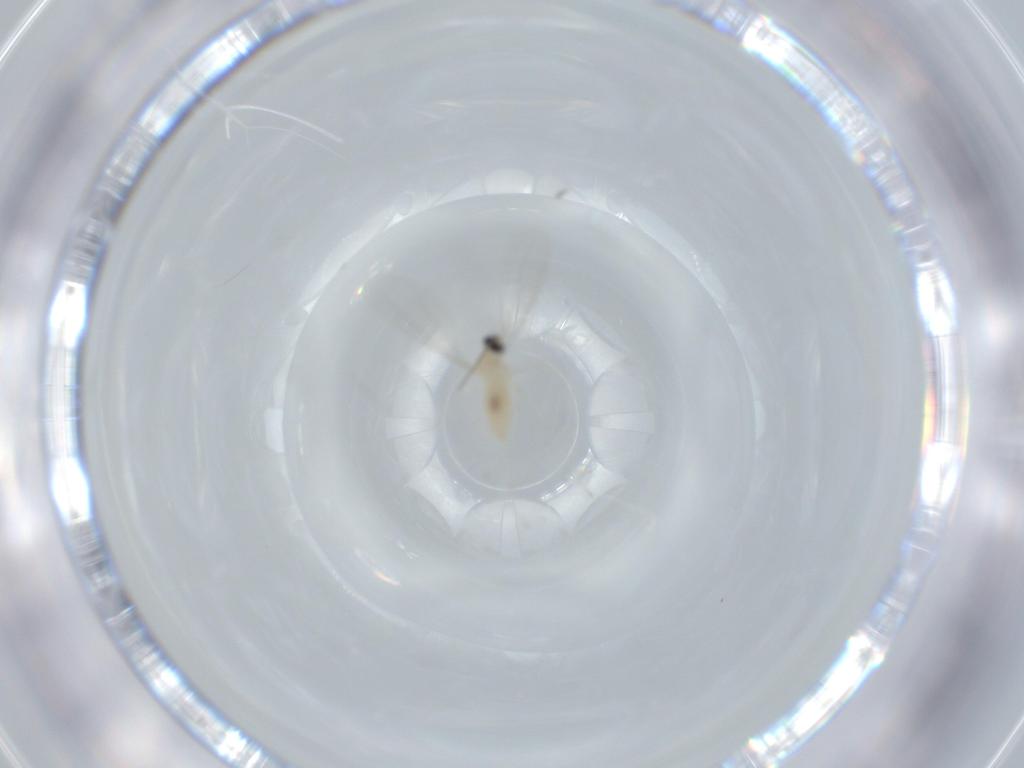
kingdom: Animalia
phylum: Arthropoda
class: Insecta
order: Diptera
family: Cecidomyiidae
